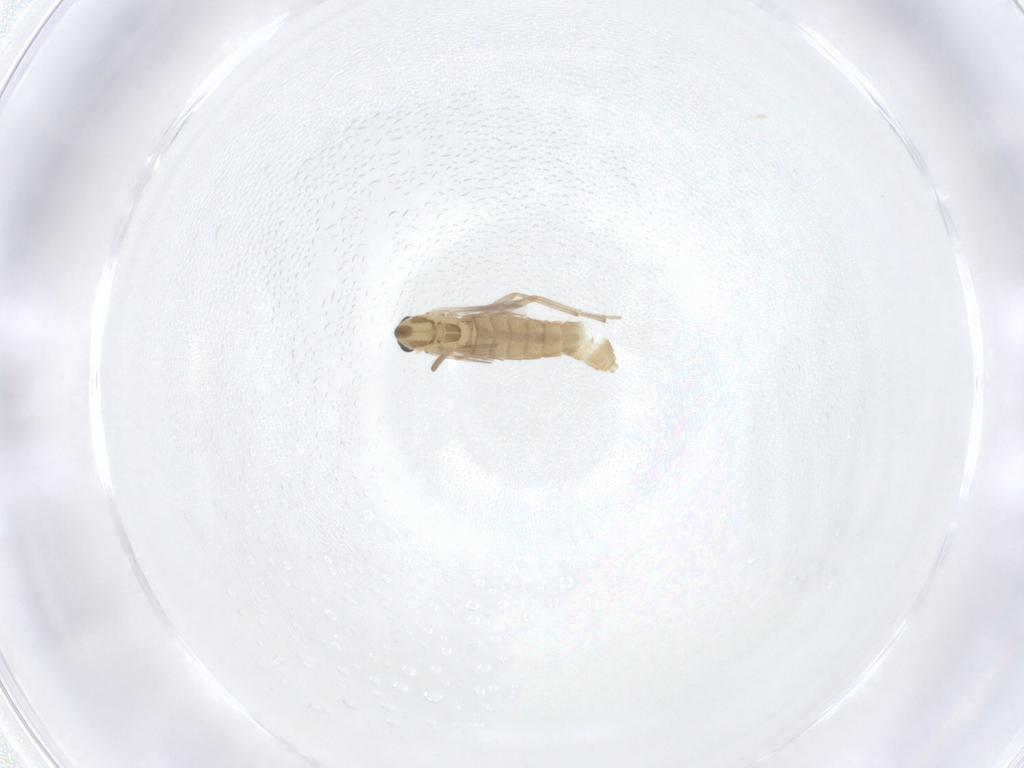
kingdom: Animalia
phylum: Arthropoda
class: Insecta
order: Diptera
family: Chironomidae
